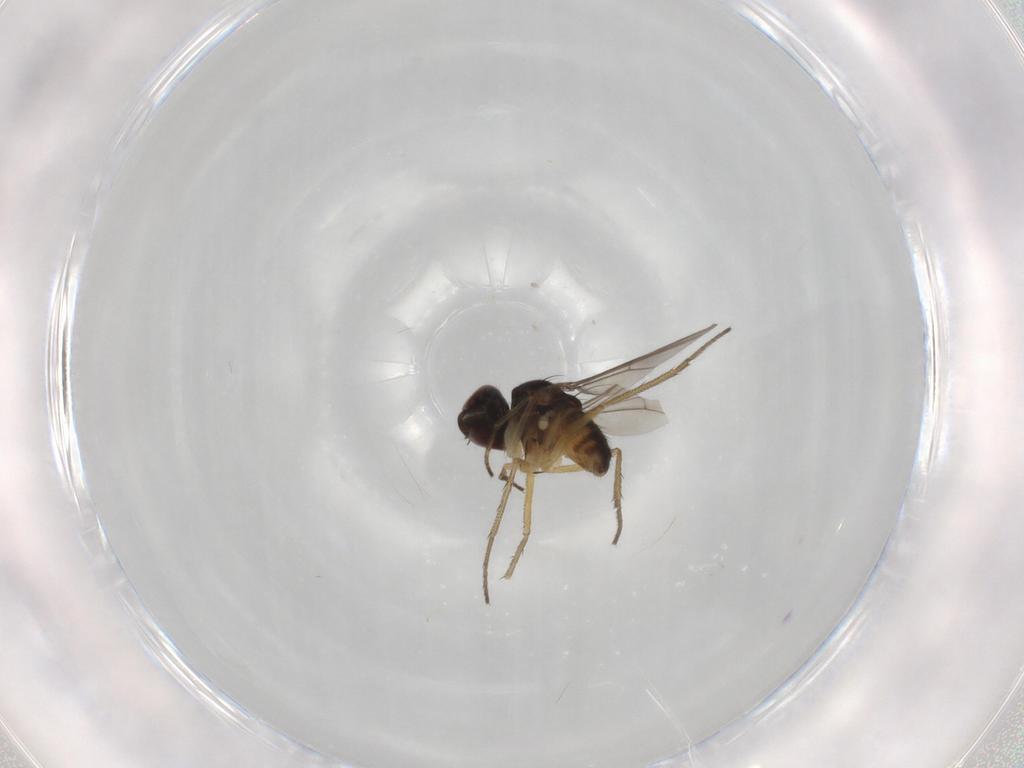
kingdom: Animalia
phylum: Arthropoda
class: Insecta
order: Diptera
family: Dolichopodidae
